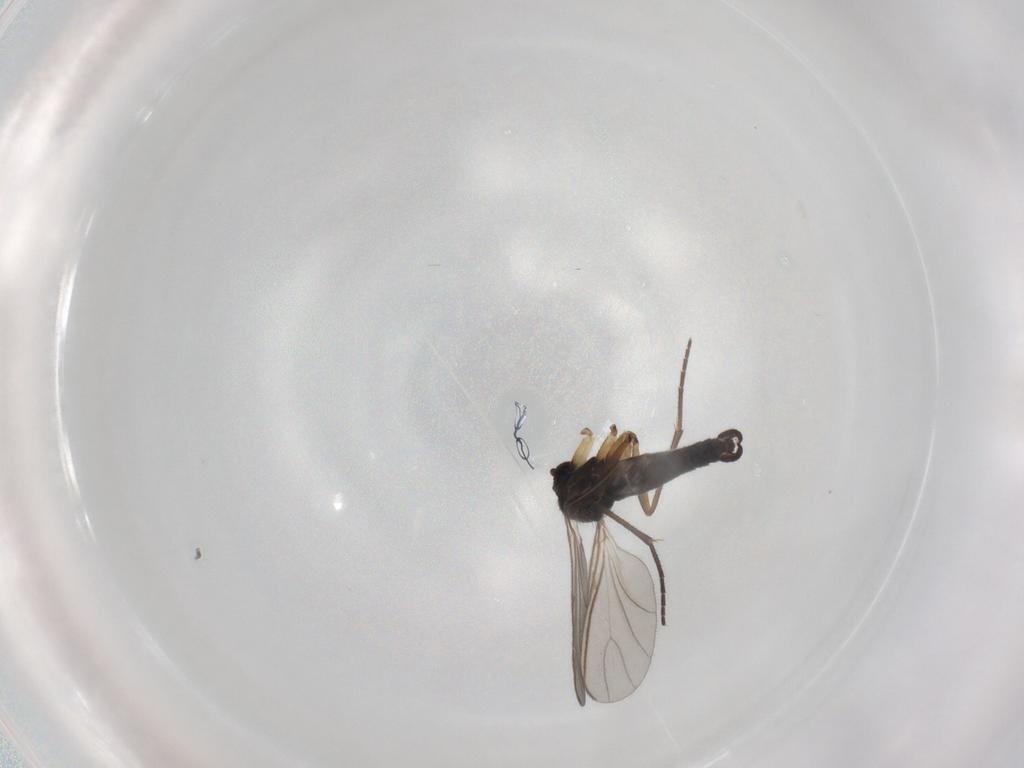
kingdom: Animalia
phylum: Arthropoda
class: Insecta
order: Diptera
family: Sciaridae
